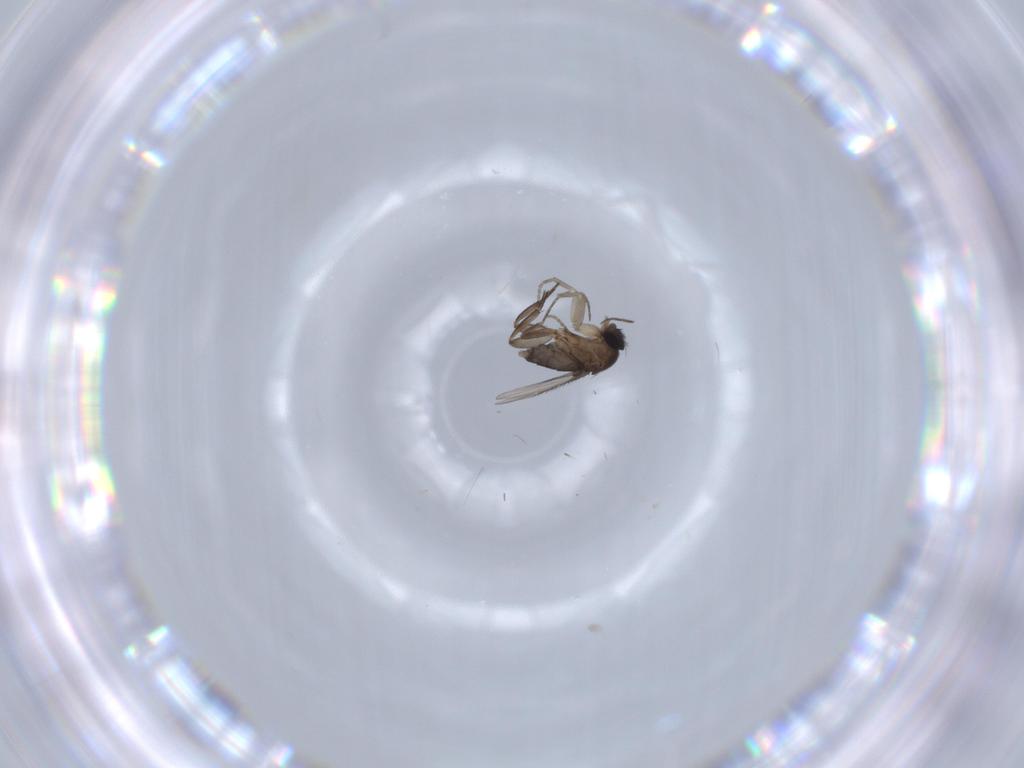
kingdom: Animalia
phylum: Arthropoda
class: Insecta
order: Diptera
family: Phoridae
